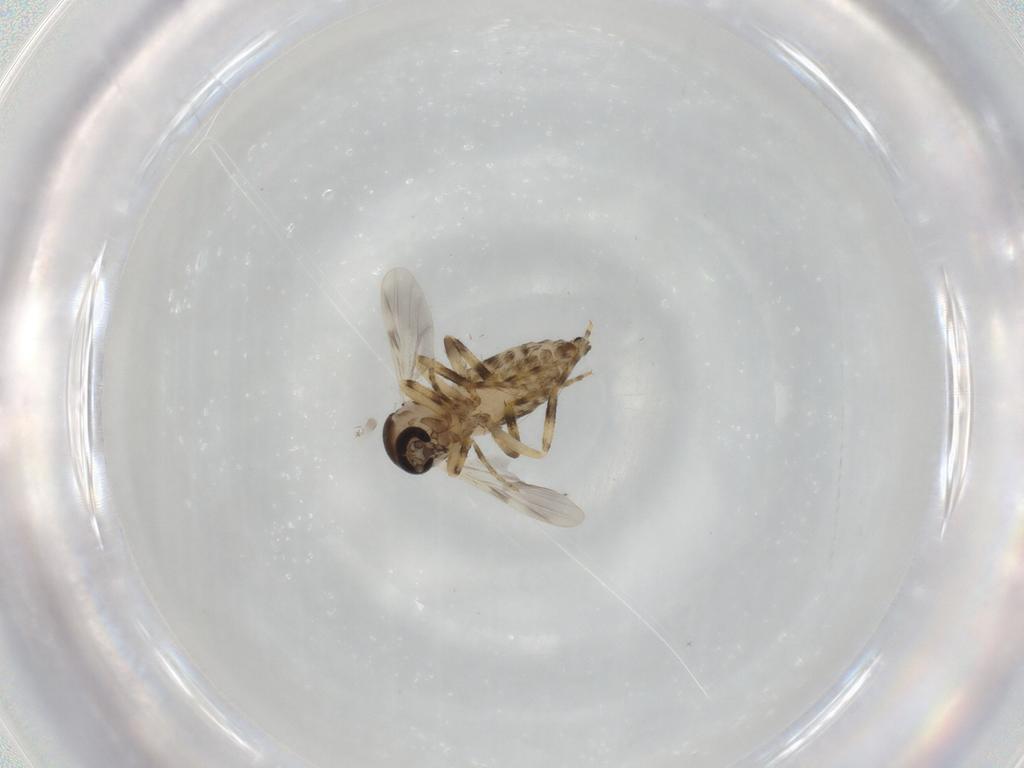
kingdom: Animalia
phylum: Arthropoda
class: Insecta
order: Diptera
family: Ceratopogonidae
